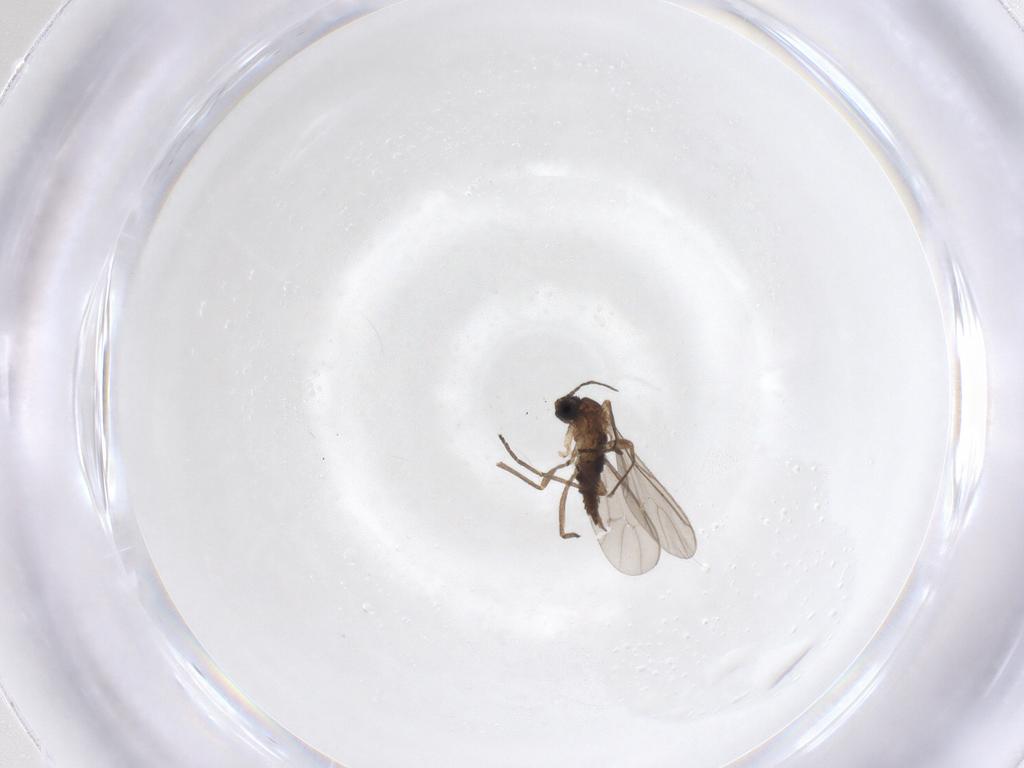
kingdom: Animalia
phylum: Arthropoda
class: Insecta
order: Diptera
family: Sciaridae
